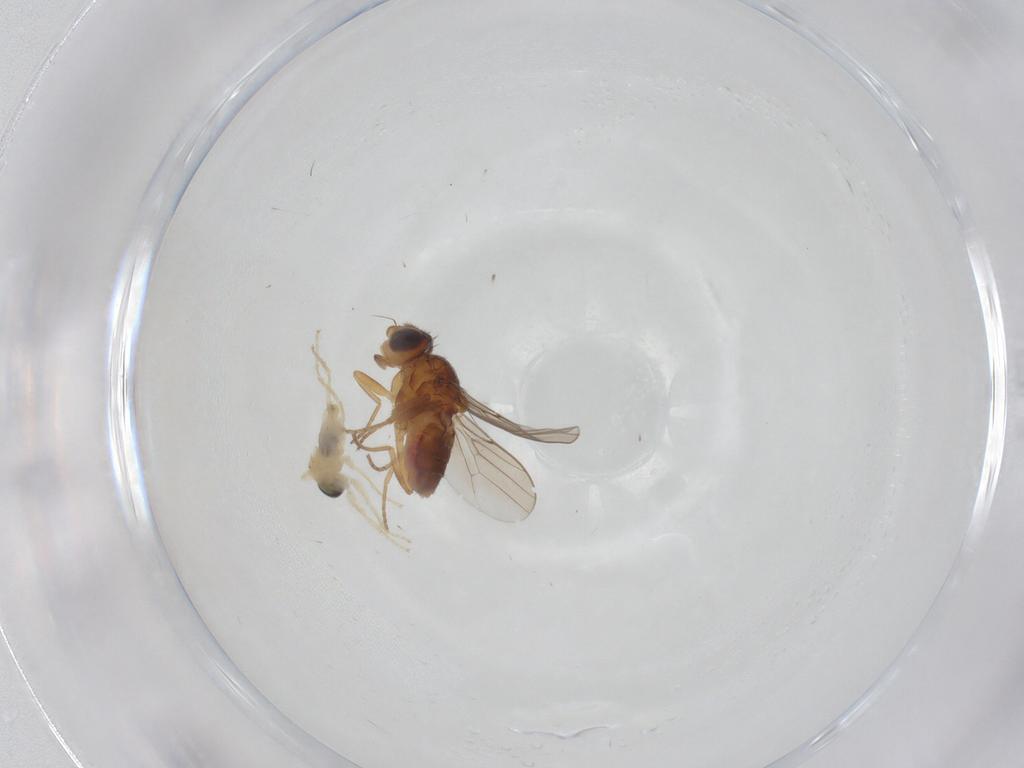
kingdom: Animalia
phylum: Arthropoda
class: Insecta
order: Diptera
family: Chloropidae
